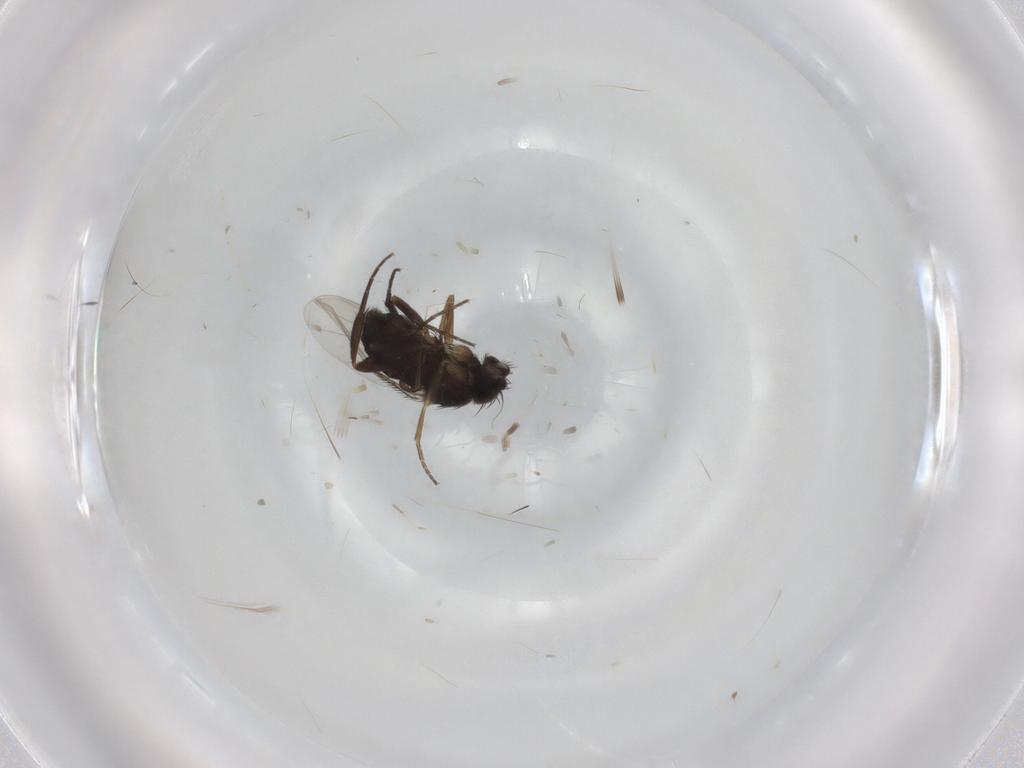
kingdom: Animalia
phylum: Arthropoda
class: Insecta
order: Diptera
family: Phoridae
